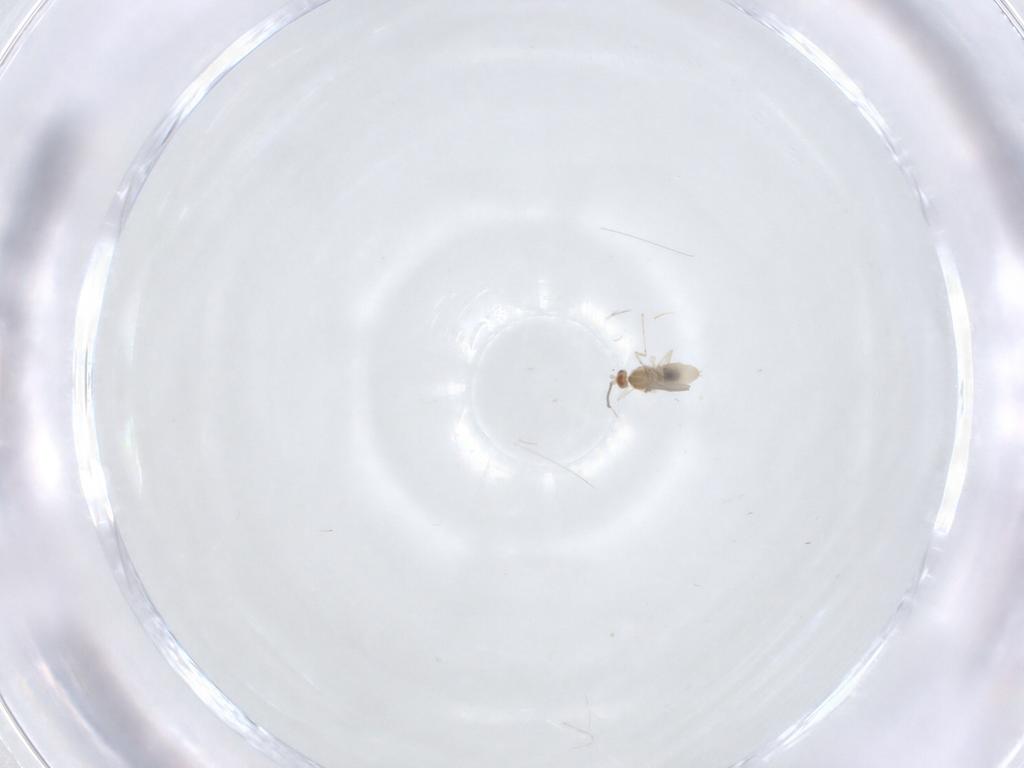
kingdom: Animalia
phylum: Arthropoda
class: Insecta
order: Diptera
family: Cecidomyiidae
